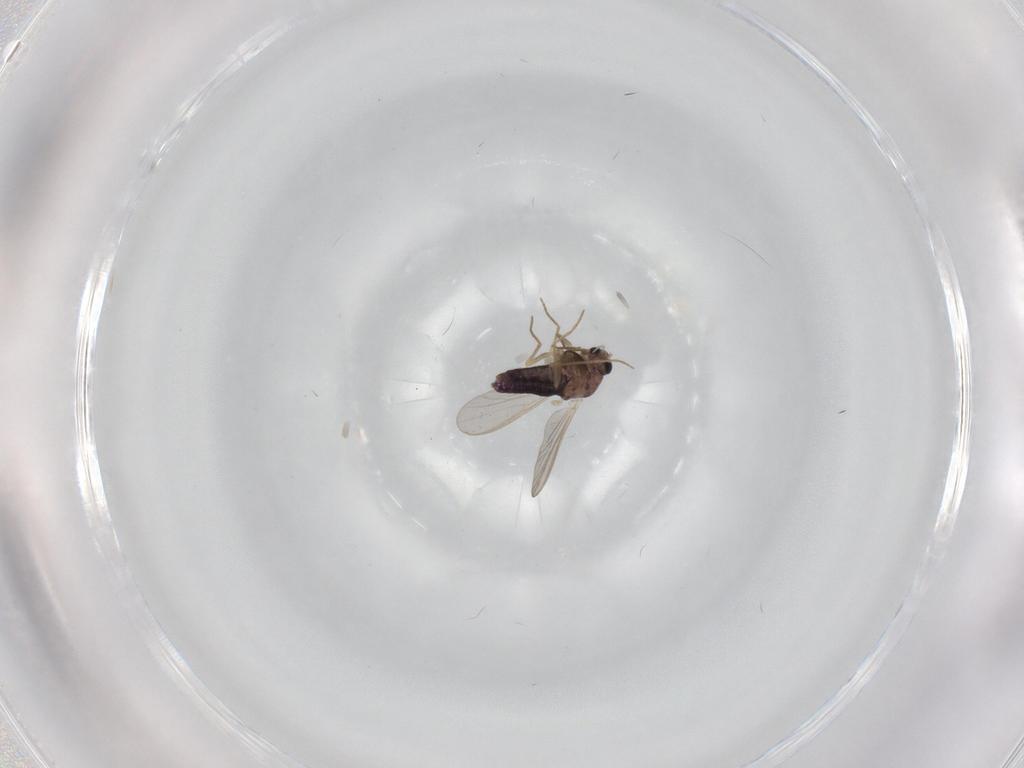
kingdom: Animalia
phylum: Arthropoda
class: Insecta
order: Diptera
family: Chironomidae
